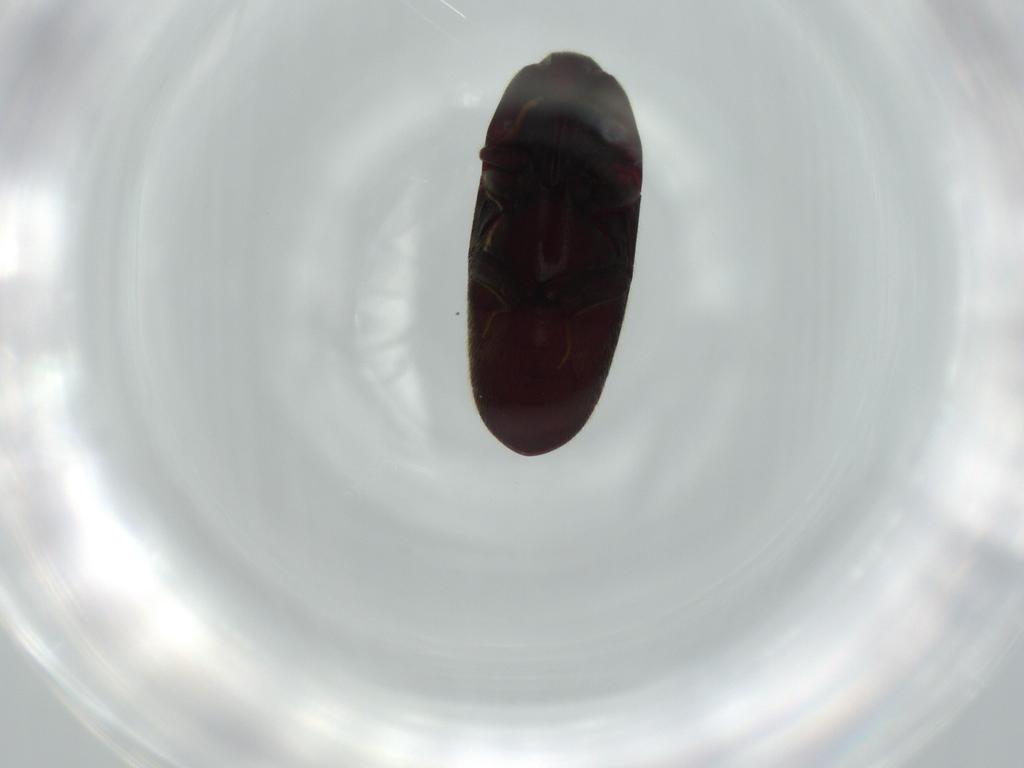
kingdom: Animalia
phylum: Arthropoda
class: Insecta
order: Coleoptera
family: Throscidae
